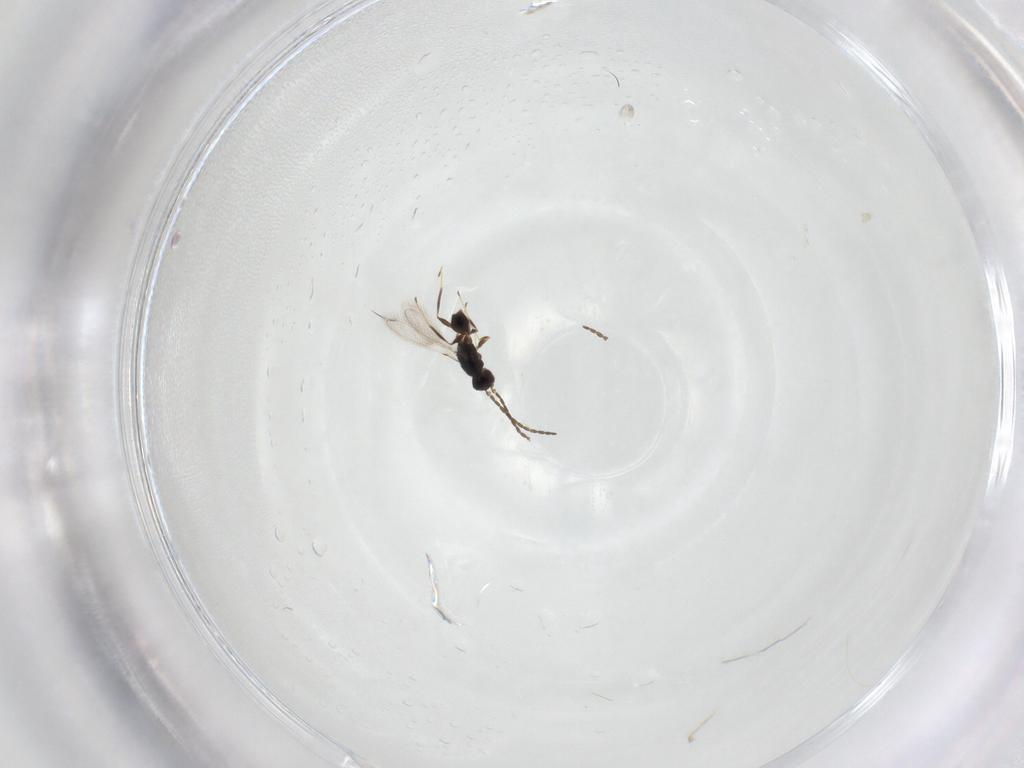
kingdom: Animalia
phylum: Arthropoda
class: Insecta
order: Hymenoptera
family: Mymaridae
